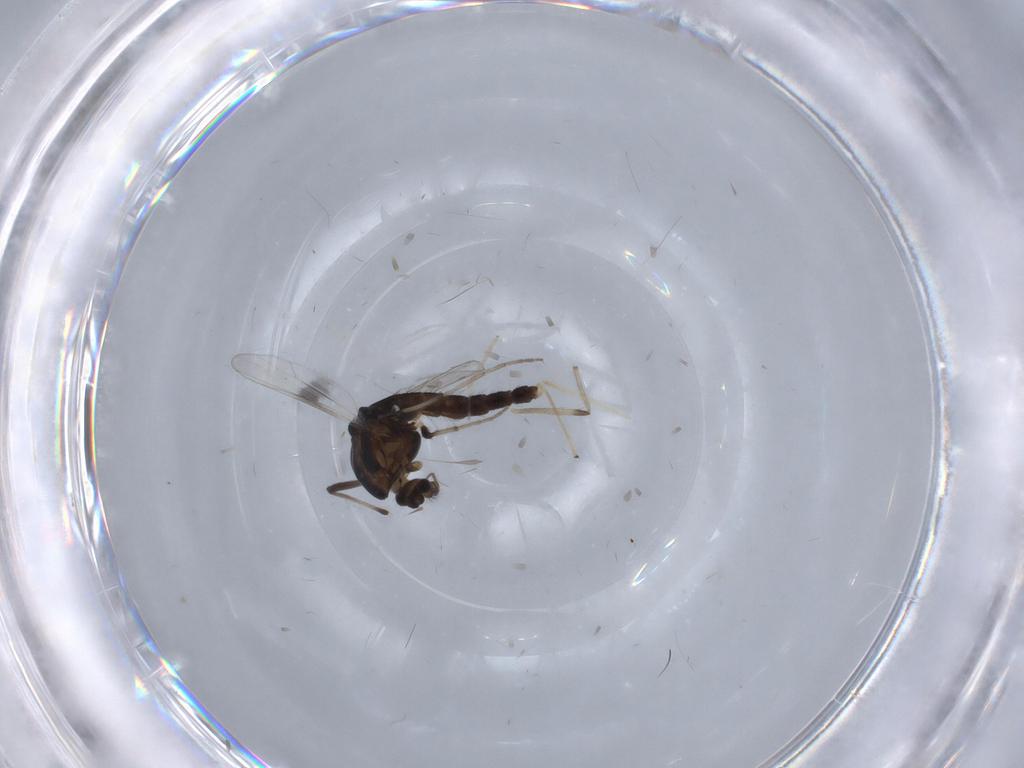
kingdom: Animalia
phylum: Arthropoda
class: Insecta
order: Diptera
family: Chironomidae
